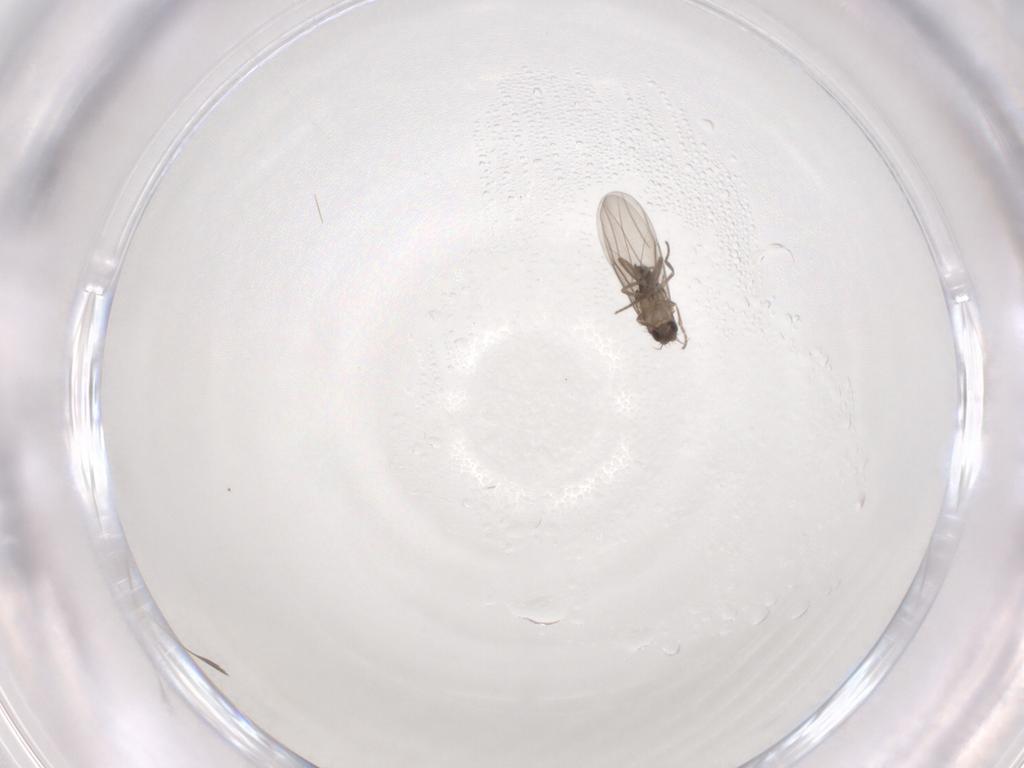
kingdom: Animalia
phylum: Arthropoda
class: Insecta
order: Diptera
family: Phoridae
